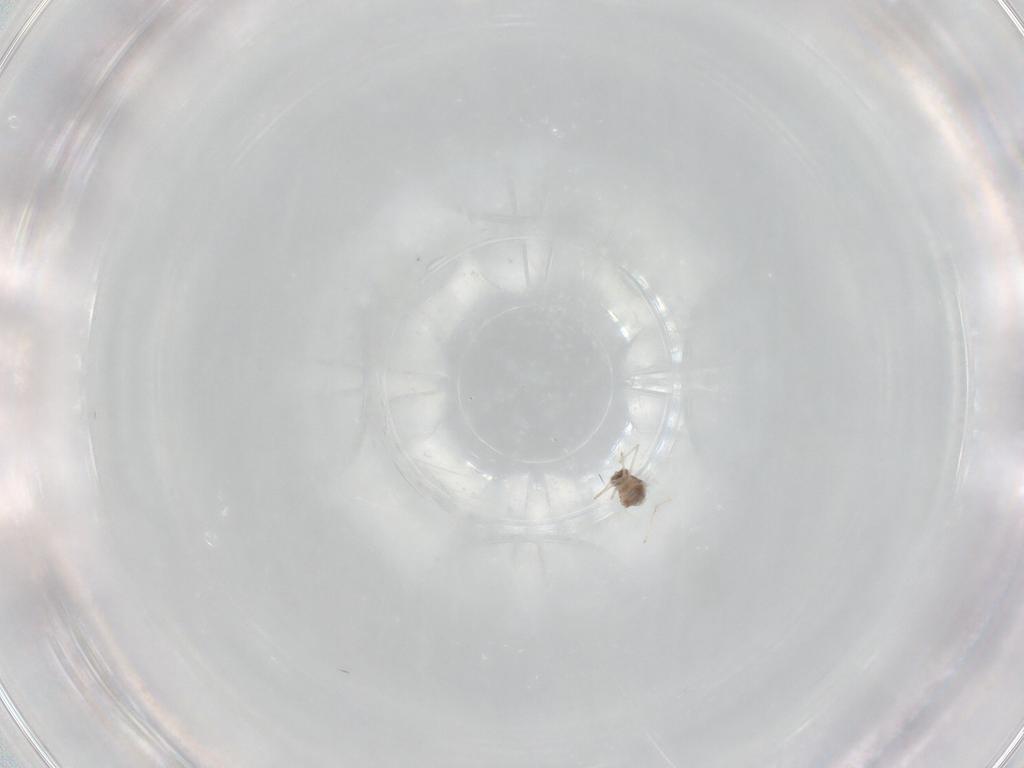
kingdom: Animalia
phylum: Arthropoda
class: Insecta
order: Diptera
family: Cecidomyiidae
